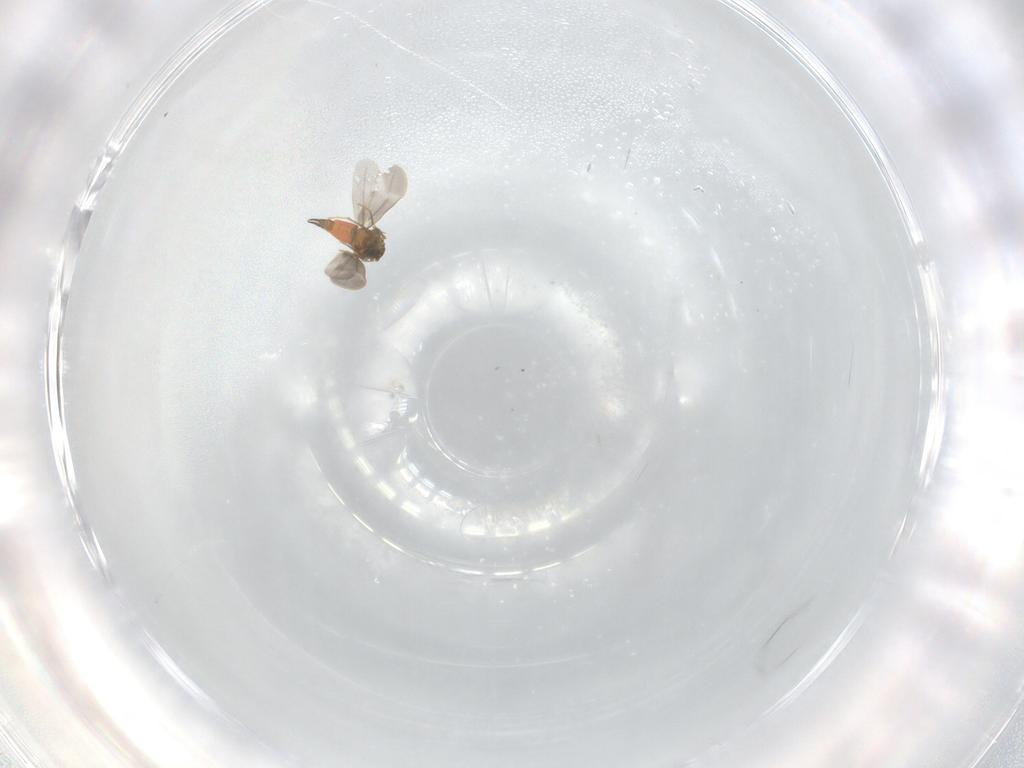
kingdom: Animalia
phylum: Arthropoda
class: Insecta
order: Hemiptera
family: Aleyrodidae
